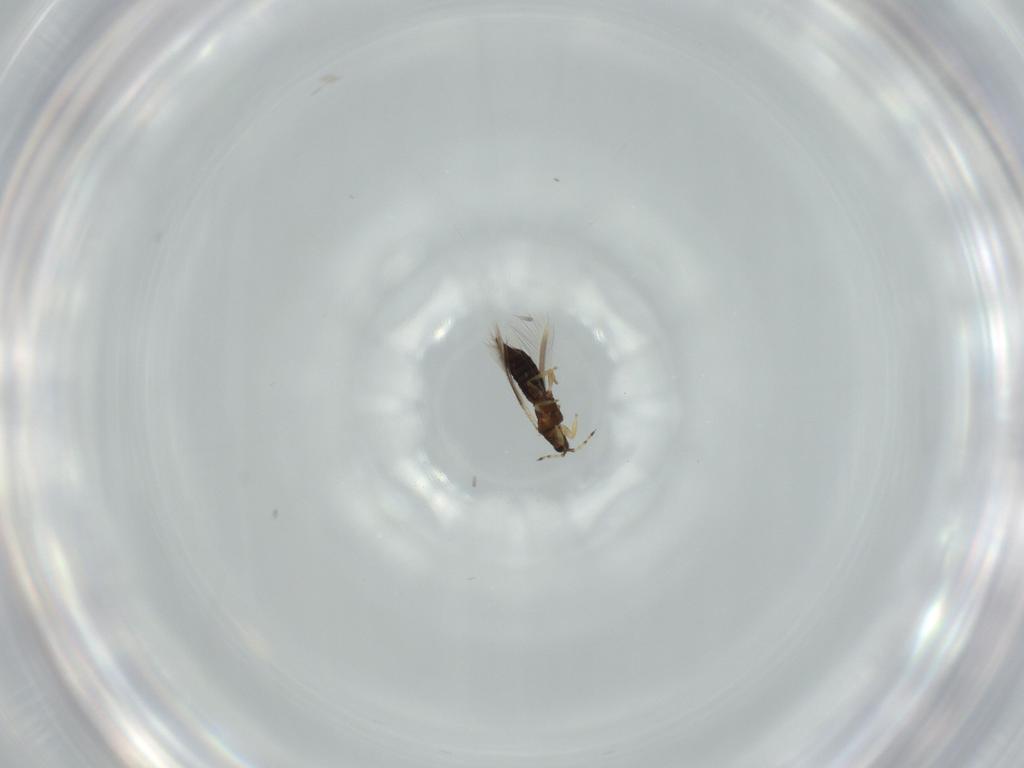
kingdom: Animalia
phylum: Arthropoda
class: Insecta
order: Thysanoptera
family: Thripidae
